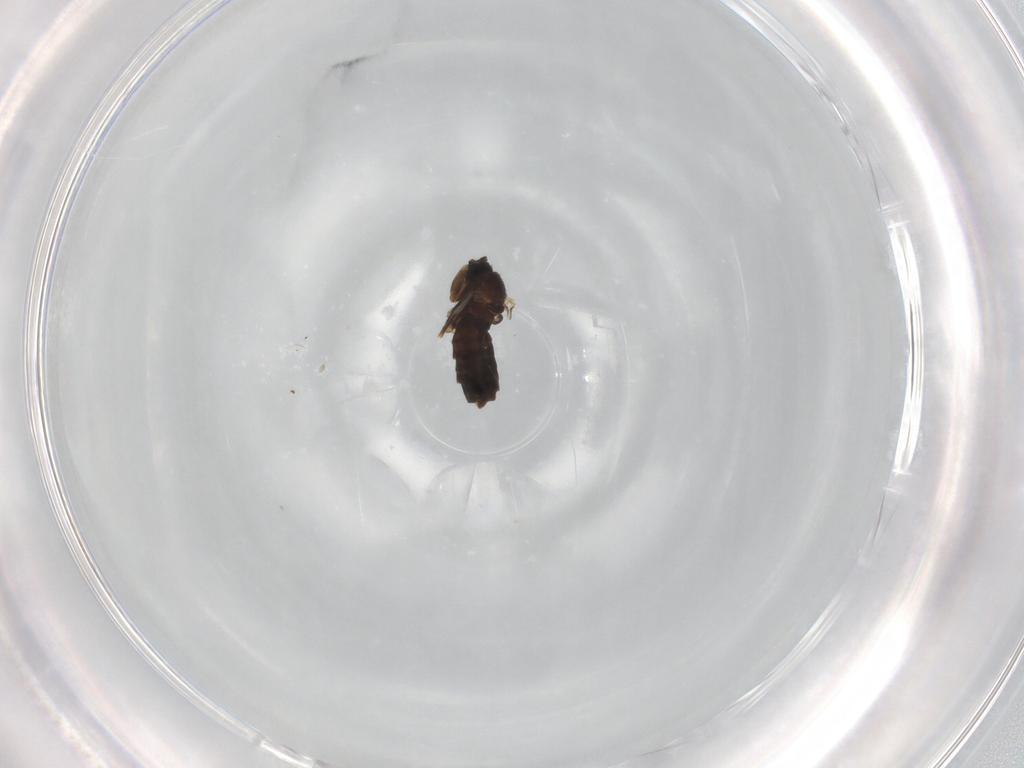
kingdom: Animalia
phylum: Arthropoda
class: Insecta
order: Diptera
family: Scatopsidae
